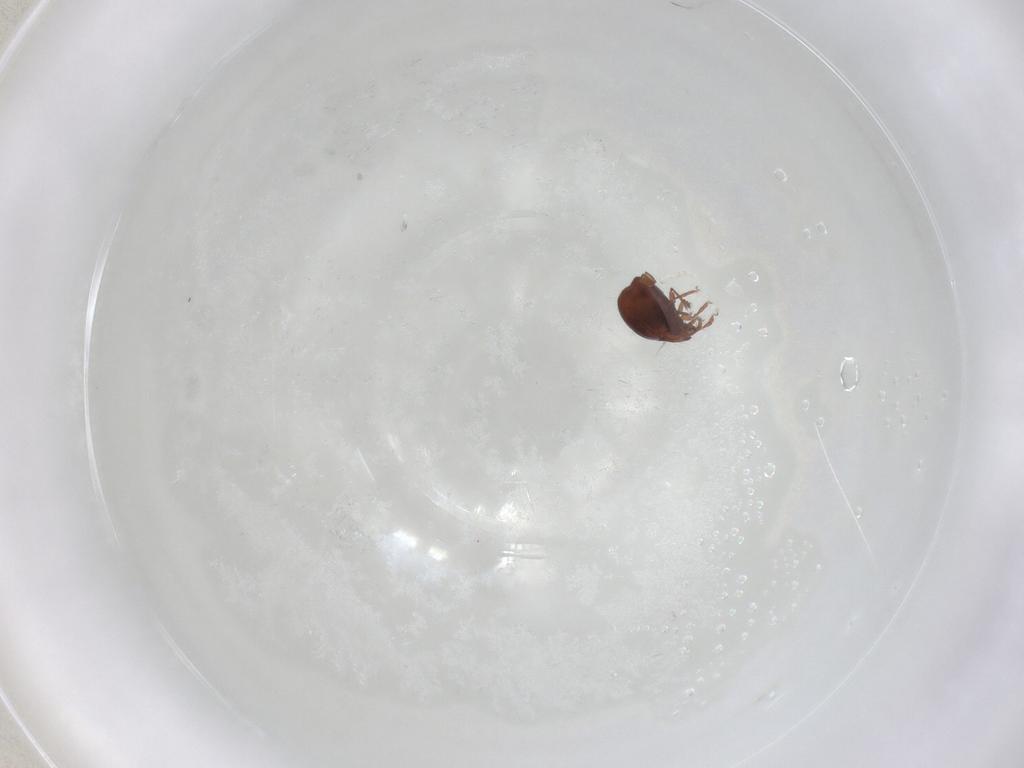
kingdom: Animalia
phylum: Arthropoda
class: Arachnida
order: Sarcoptiformes
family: Humerobatidae
